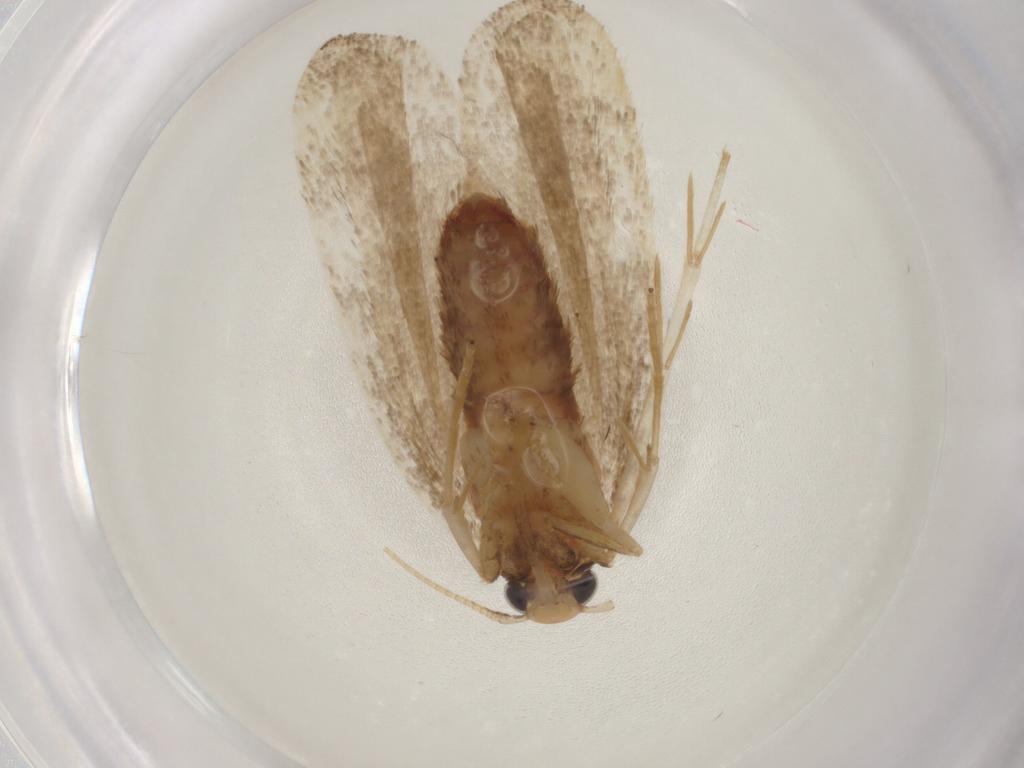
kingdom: Animalia
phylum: Arthropoda
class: Insecta
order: Lepidoptera
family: Lecithoceridae
